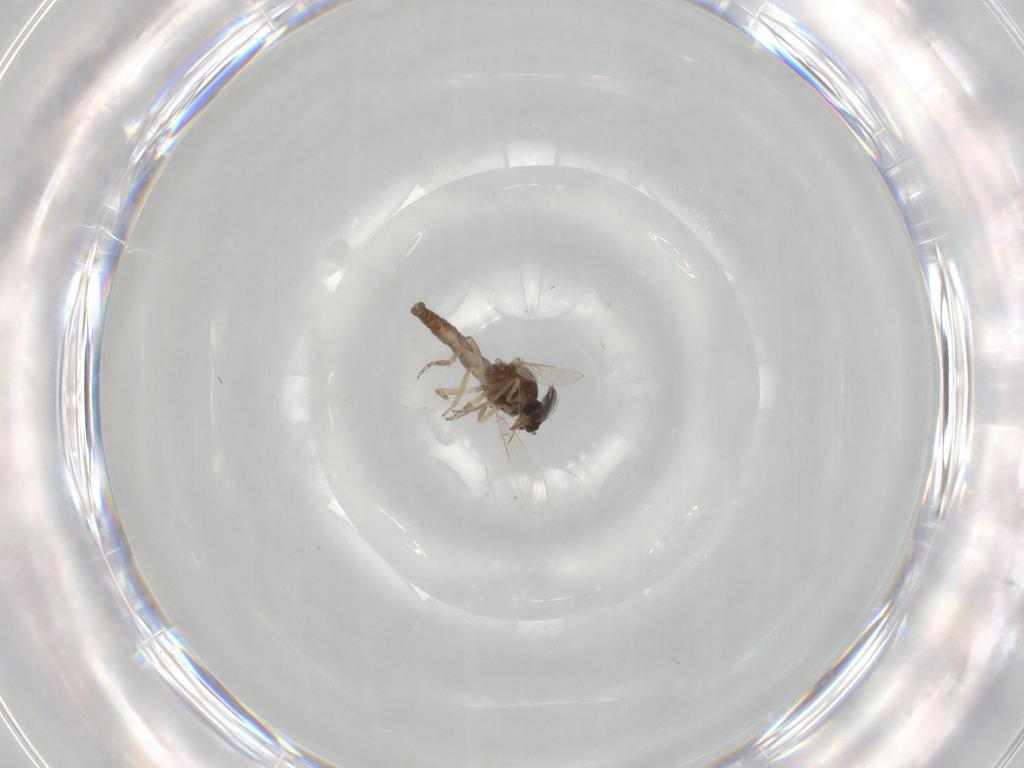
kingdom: Animalia
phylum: Arthropoda
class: Insecta
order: Diptera
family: Ceratopogonidae
